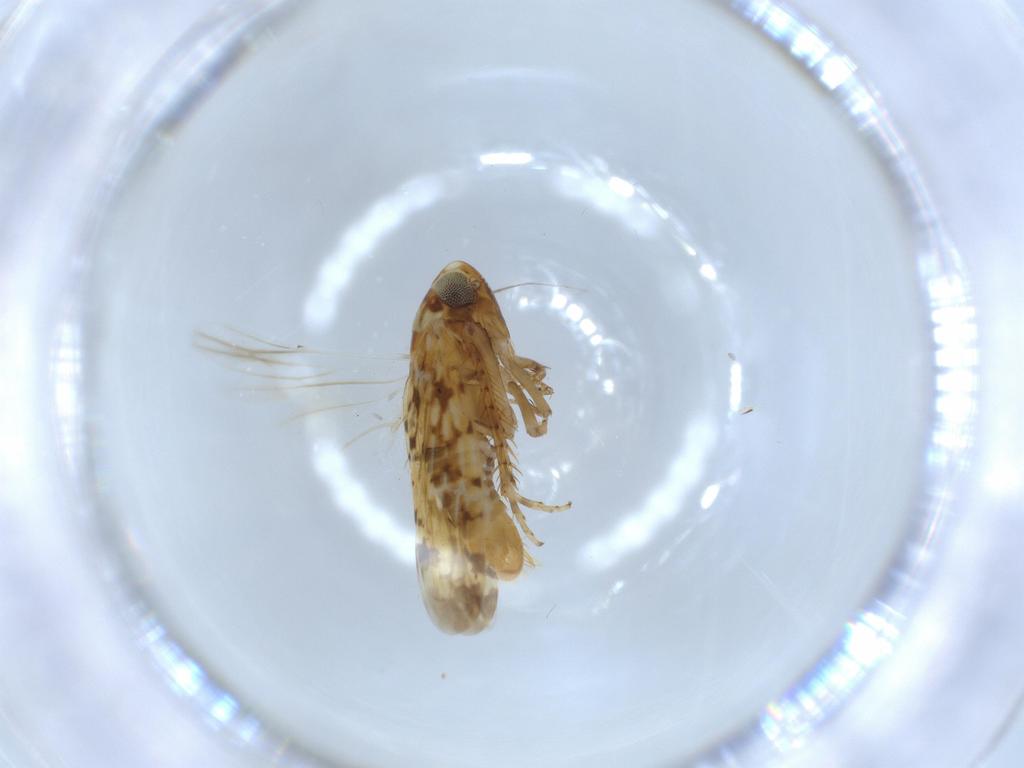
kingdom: Animalia
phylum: Arthropoda
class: Insecta
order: Hemiptera
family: Cicadellidae
